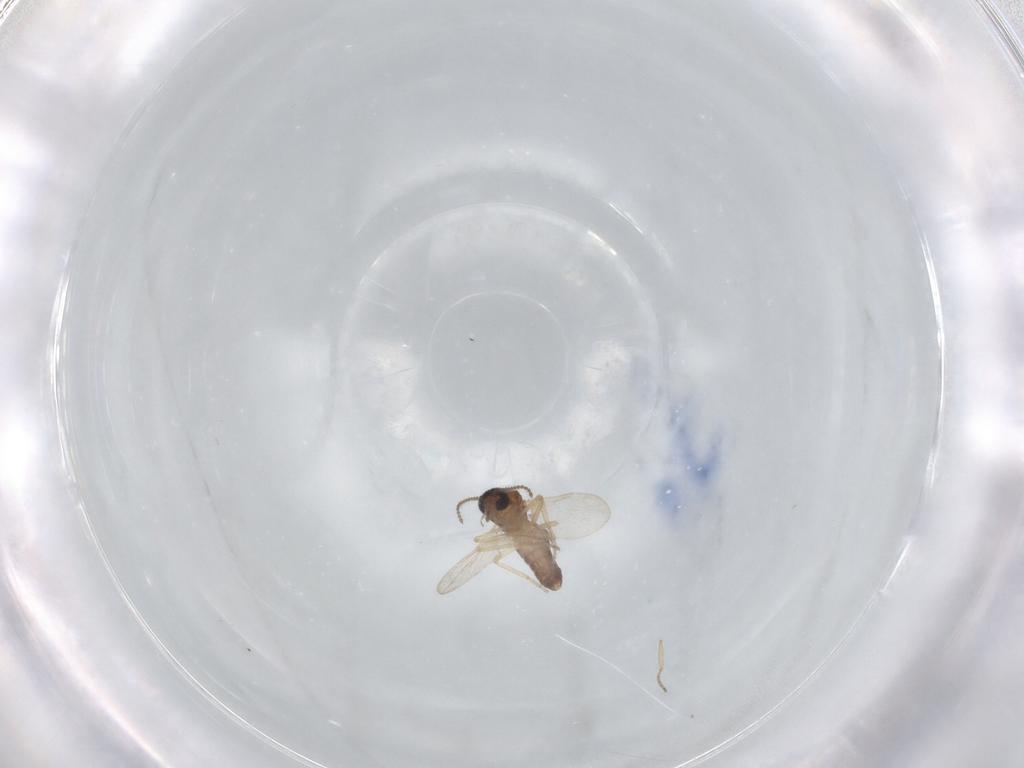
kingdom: Animalia
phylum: Arthropoda
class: Insecta
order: Diptera
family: Ceratopogonidae
